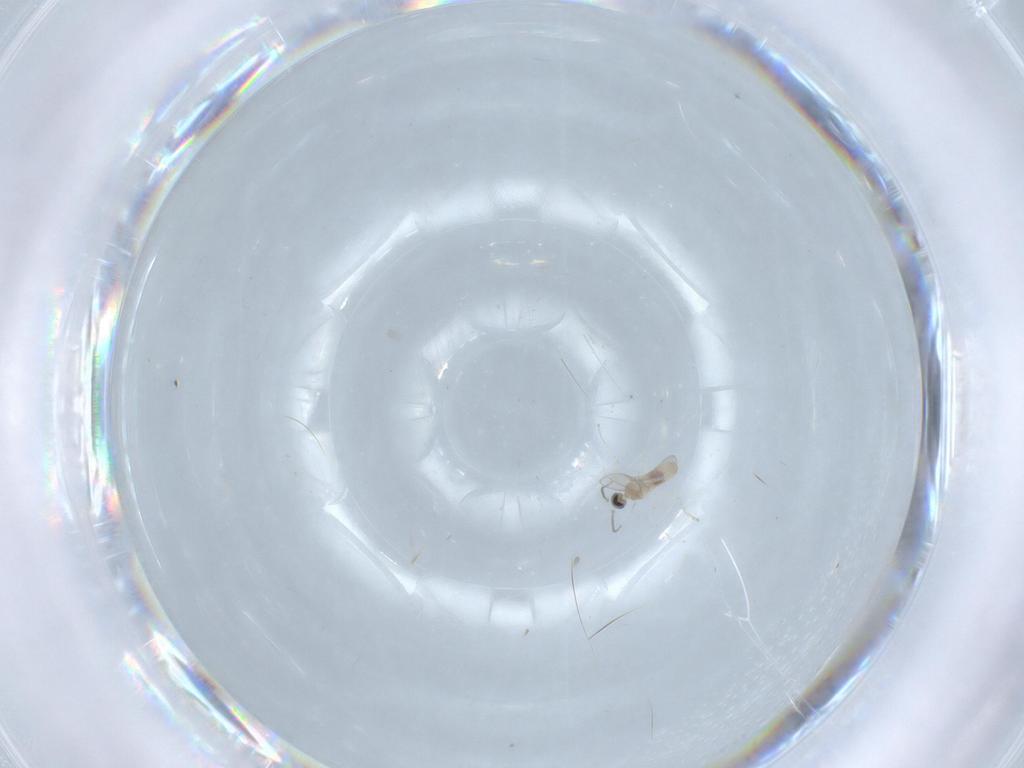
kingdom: Animalia
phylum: Arthropoda
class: Insecta
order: Diptera
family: Cecidomyiidae
